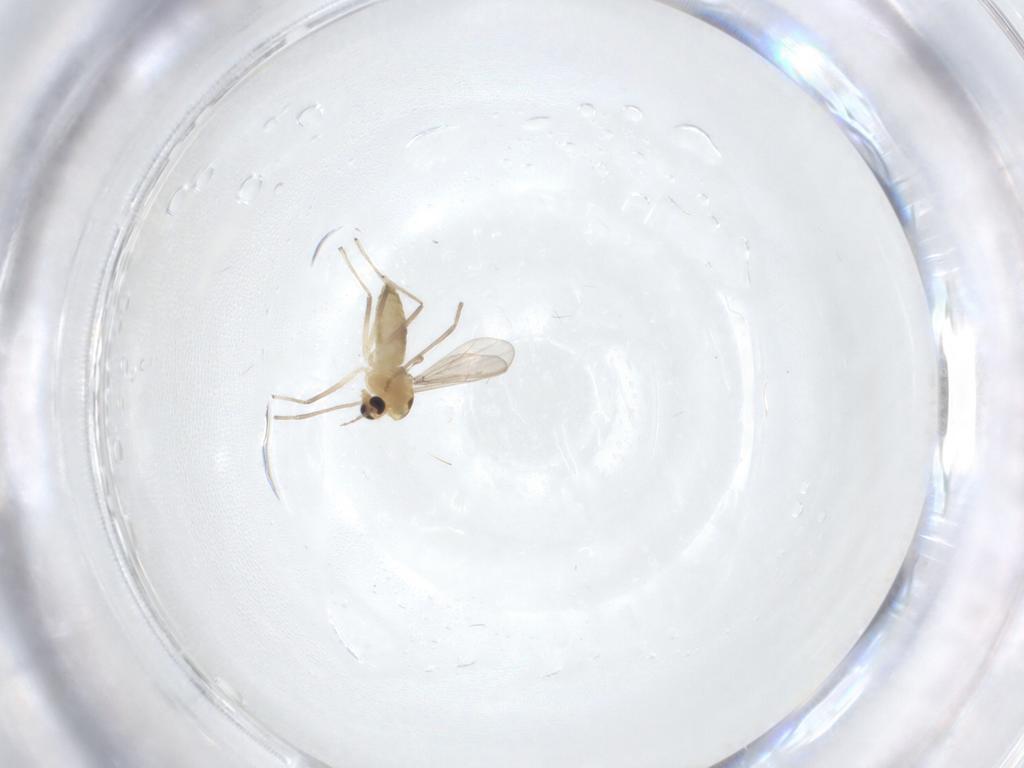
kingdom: Animalia
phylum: Arthropoda
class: Insecta
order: Diptera
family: Chironomidae
